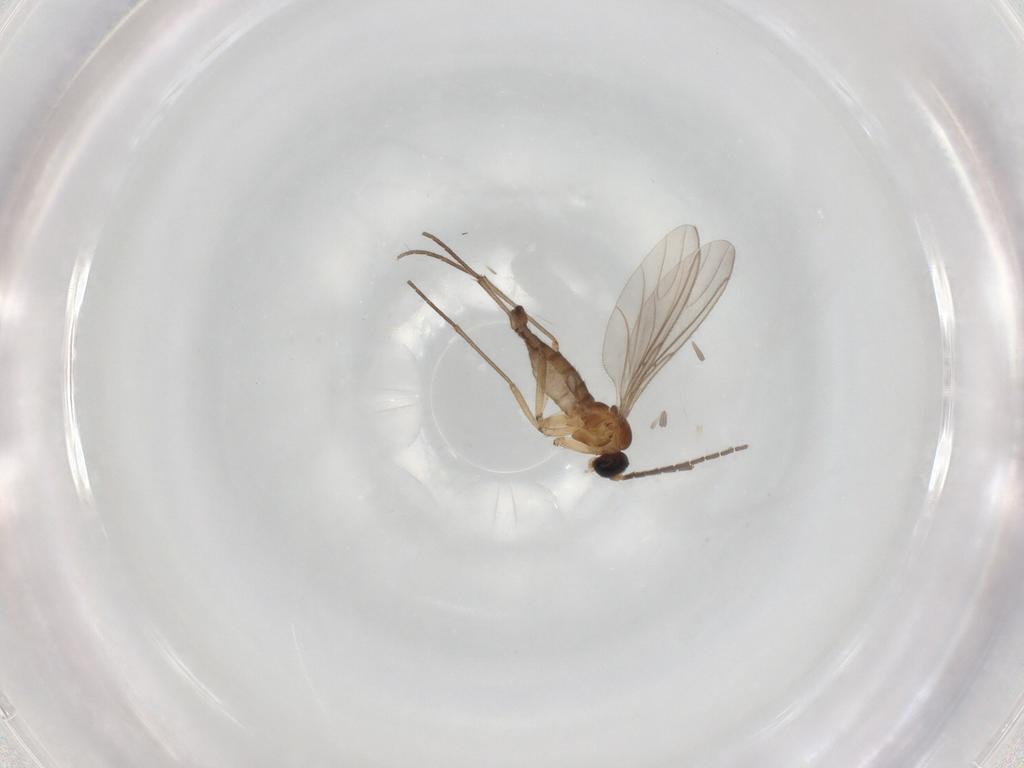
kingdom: Animalia
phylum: Arthropoda
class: Insecta
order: Diptera
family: Sciaridae
